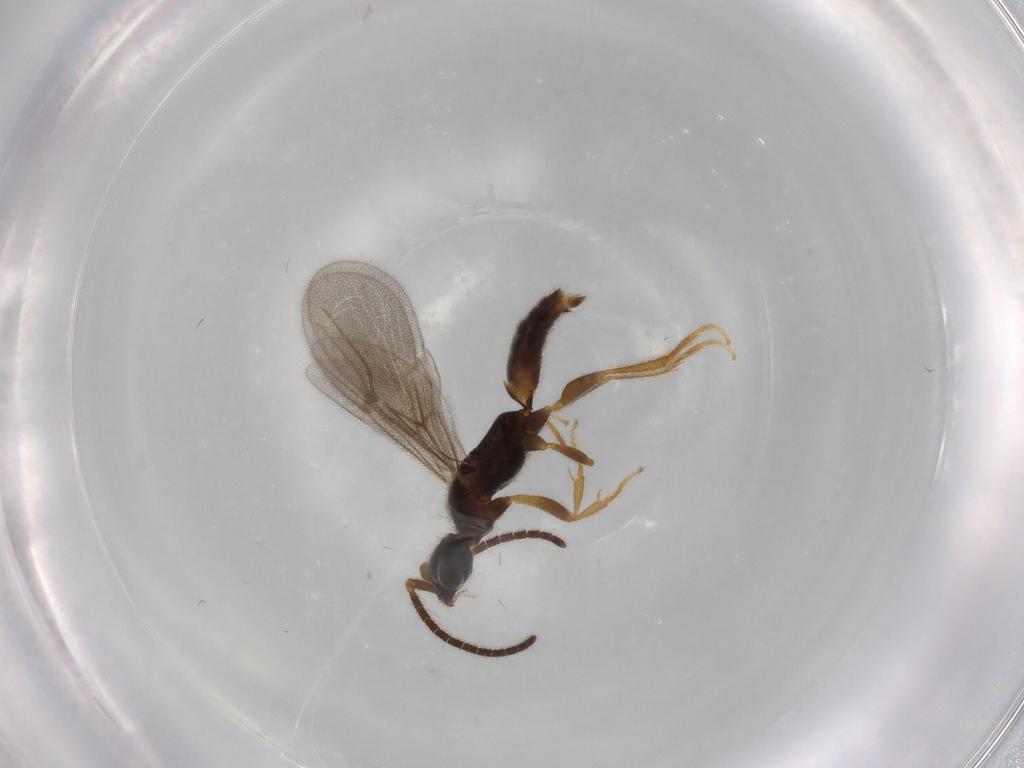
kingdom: Animalia
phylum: Arthropoda
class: Insecta
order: Hymenoptera
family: Bethylidae
